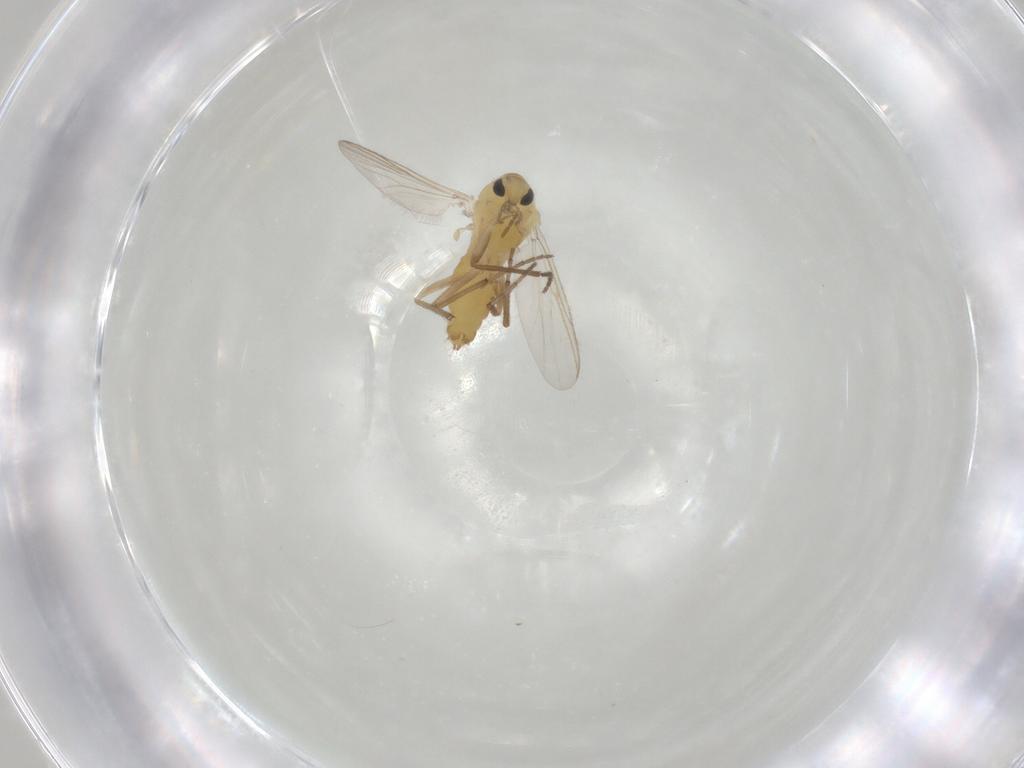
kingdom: Animalia
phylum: Arthropoda
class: Insecta
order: Diptera
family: Chironomidae
